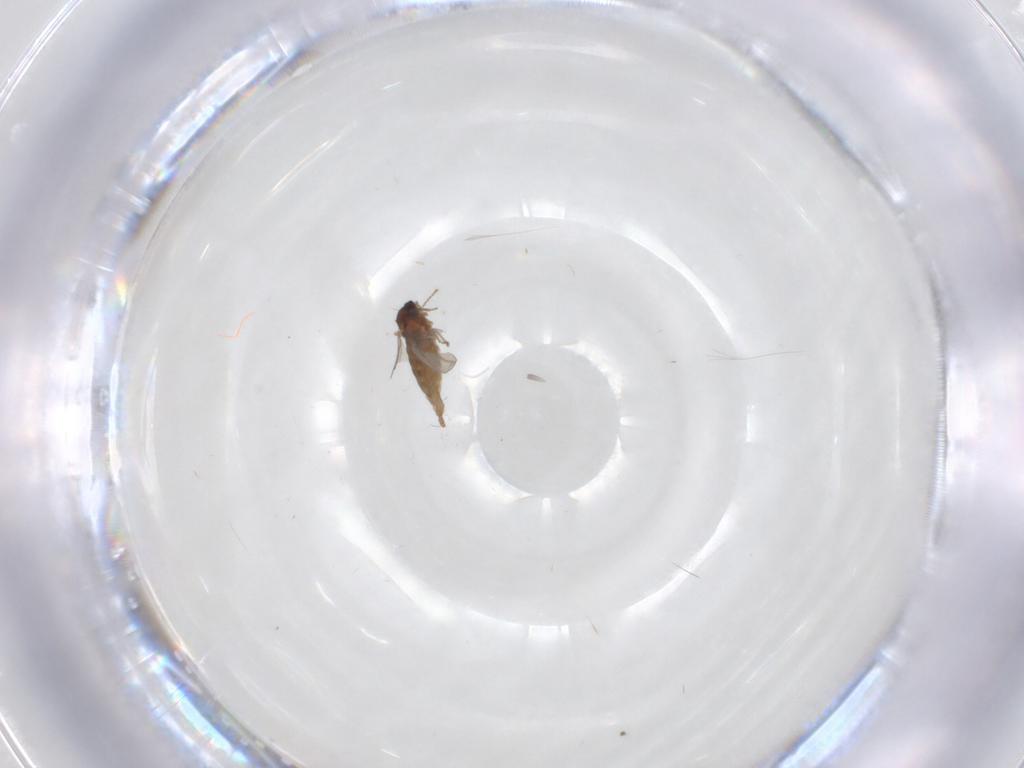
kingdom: Animalia
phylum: Arthropoda
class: Insecta
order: Diptera
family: Cecidomyiidae
